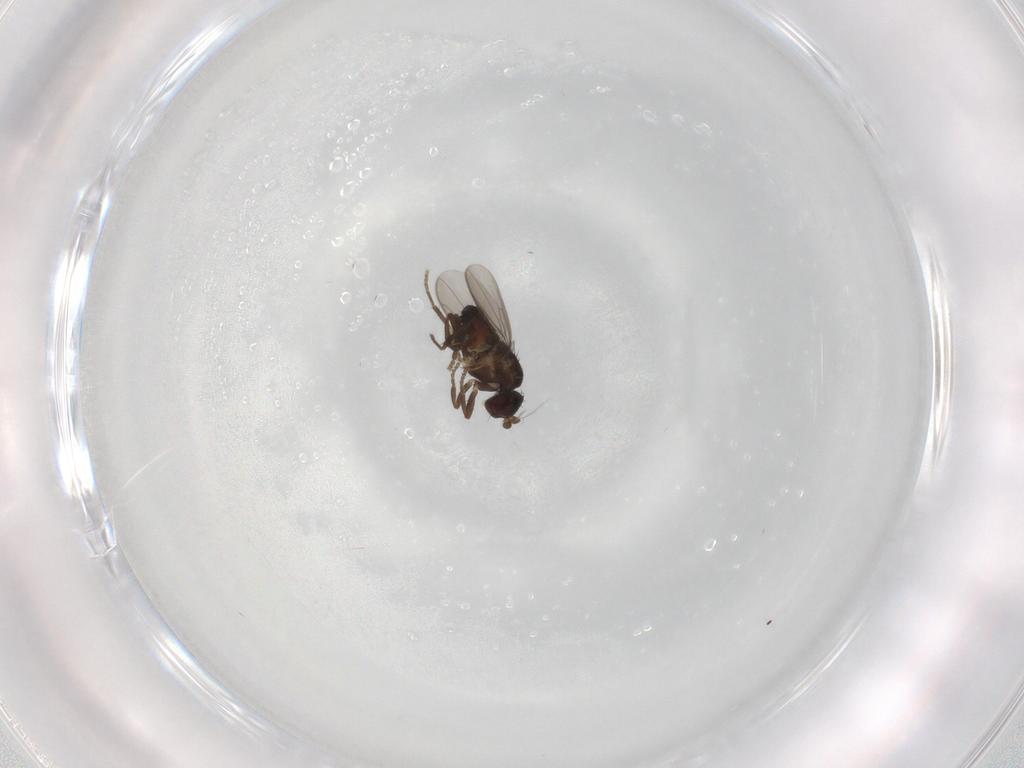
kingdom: Animalia
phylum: Arthropoda
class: Insecta
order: Diptera
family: Sphaeroceridae
